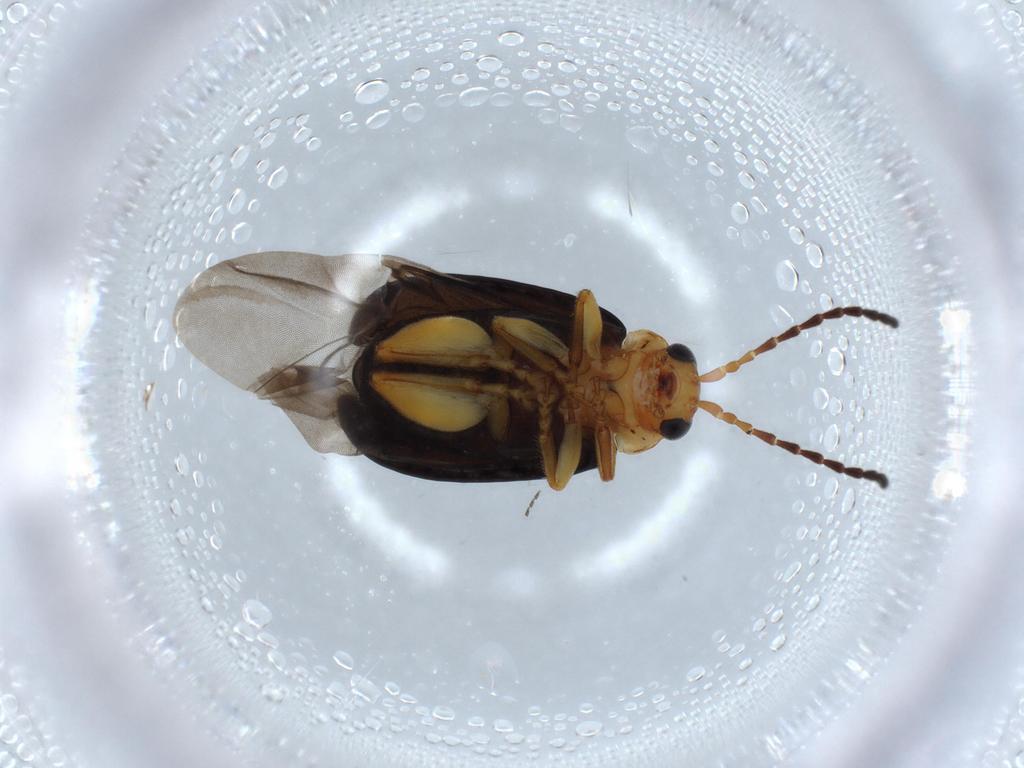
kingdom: Animalia
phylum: Arthropoda
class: Insecta
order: Coleoptera
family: Chrysomelidae
